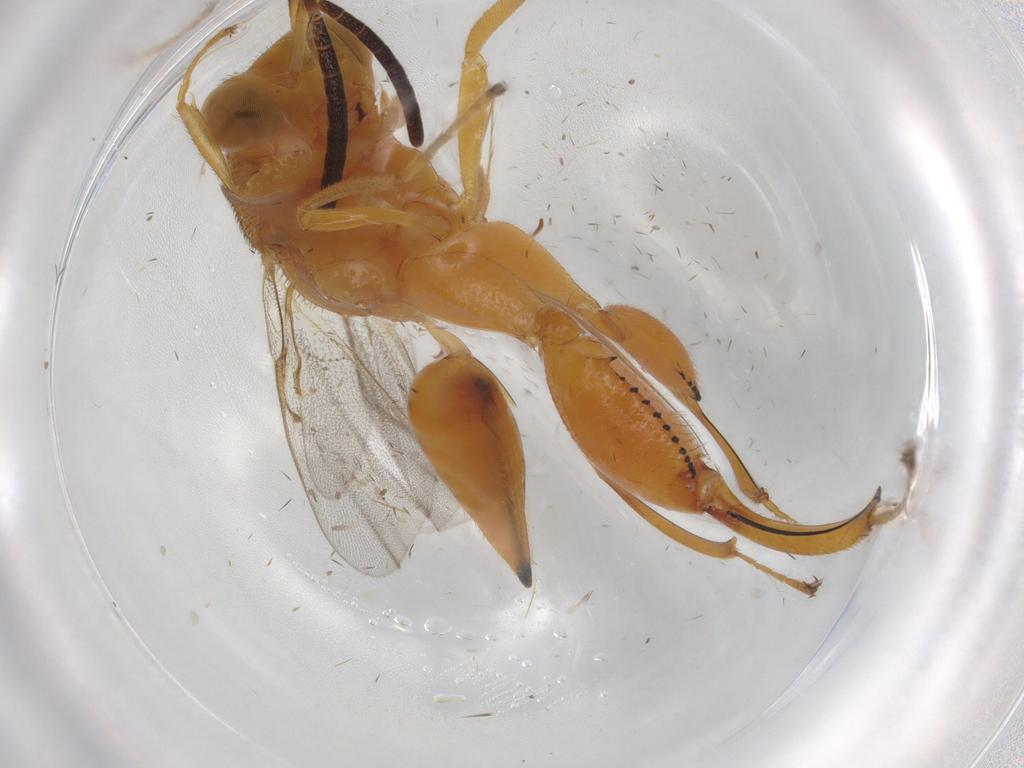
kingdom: Animalia
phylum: Arthropoda
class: Insecta
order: Hymenoptera
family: Chalcididae
